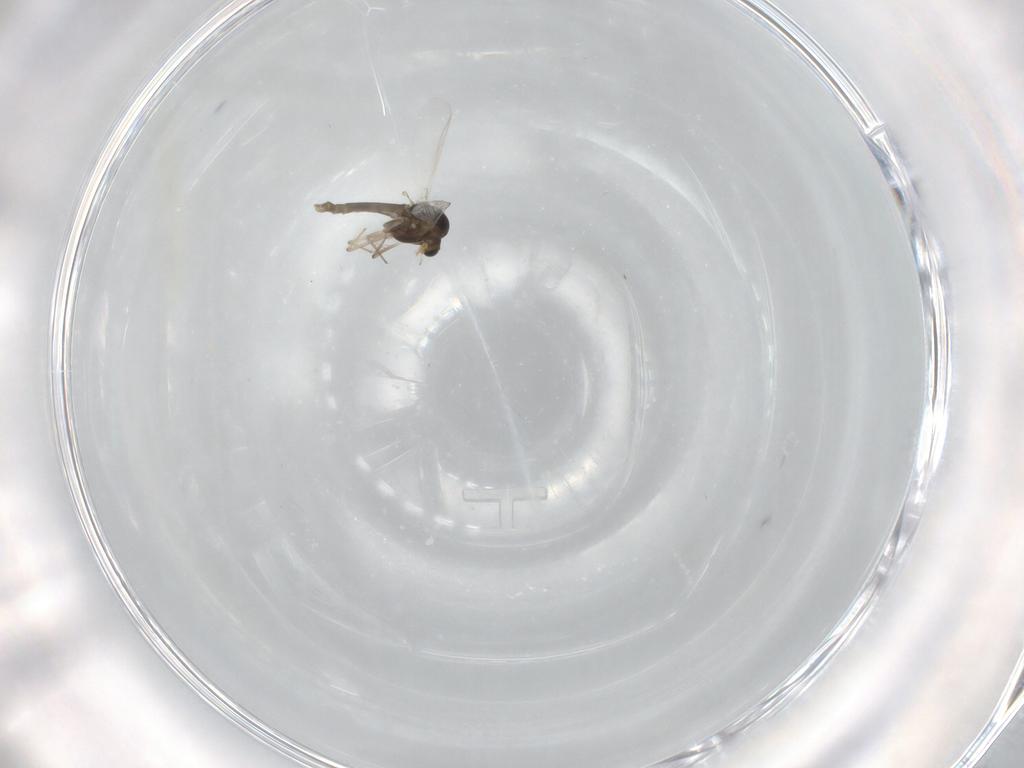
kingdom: Animalia
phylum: Arthropoda
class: Insecta
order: Diptera
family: Chironomidae
